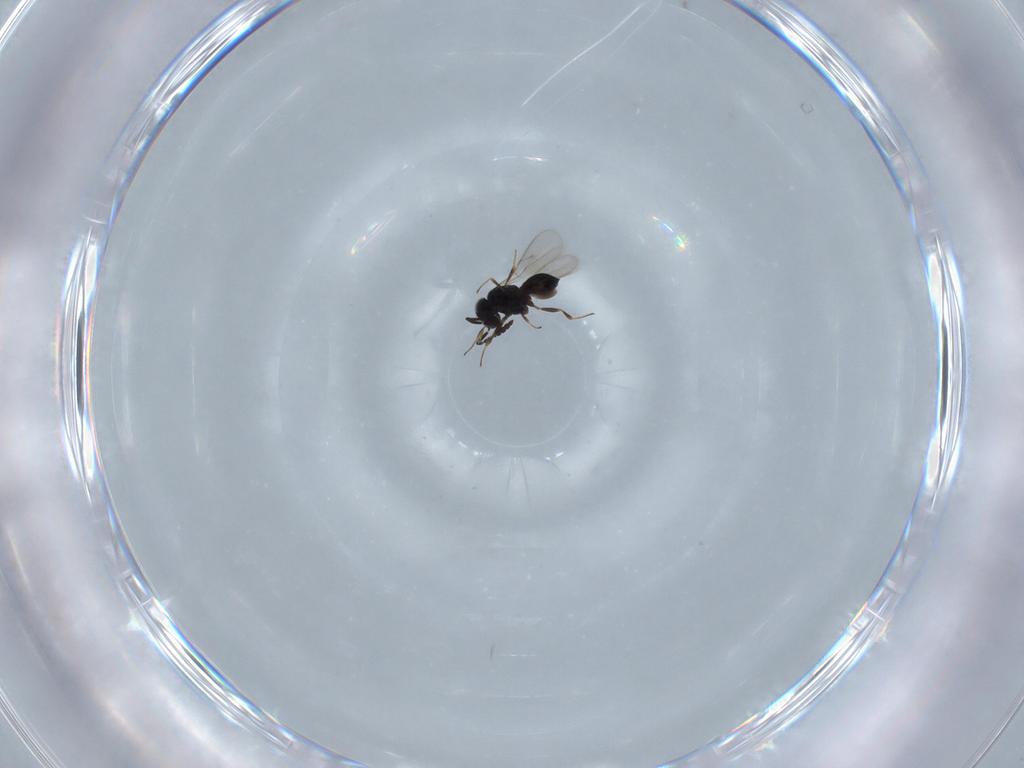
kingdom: Animalia
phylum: Arthropoda
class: Insecta
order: Hymenoptera
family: Scelionidae
